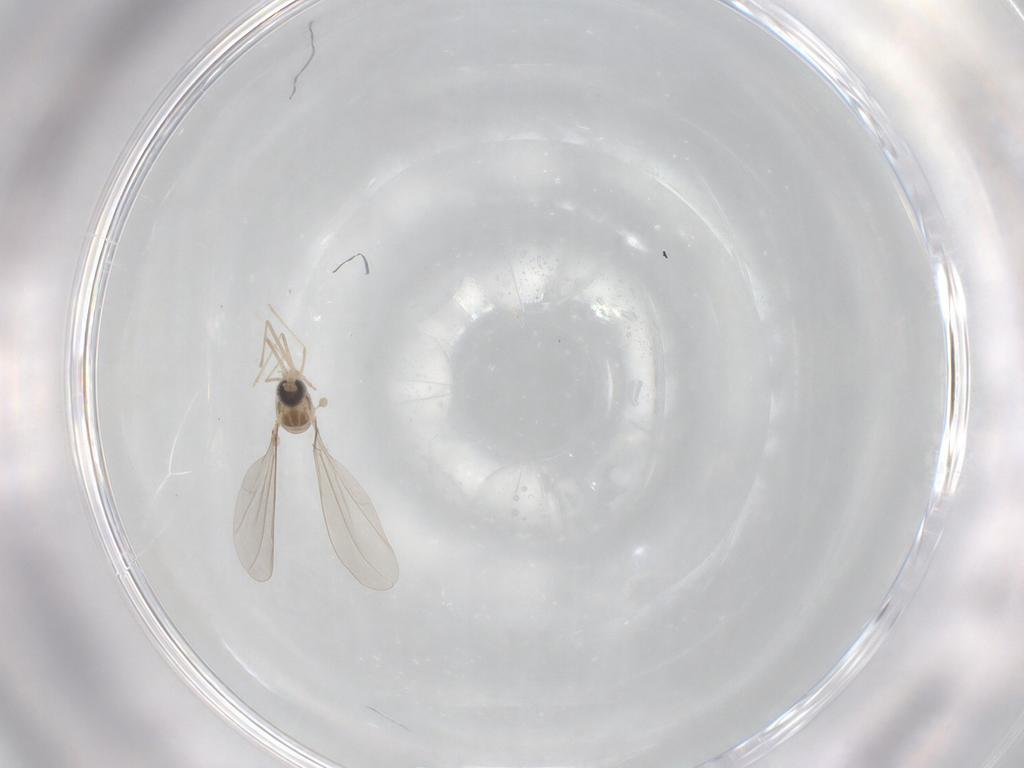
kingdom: Animalia
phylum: Arthropoda
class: Insecta
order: Diptera
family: Cecidomyiidae
